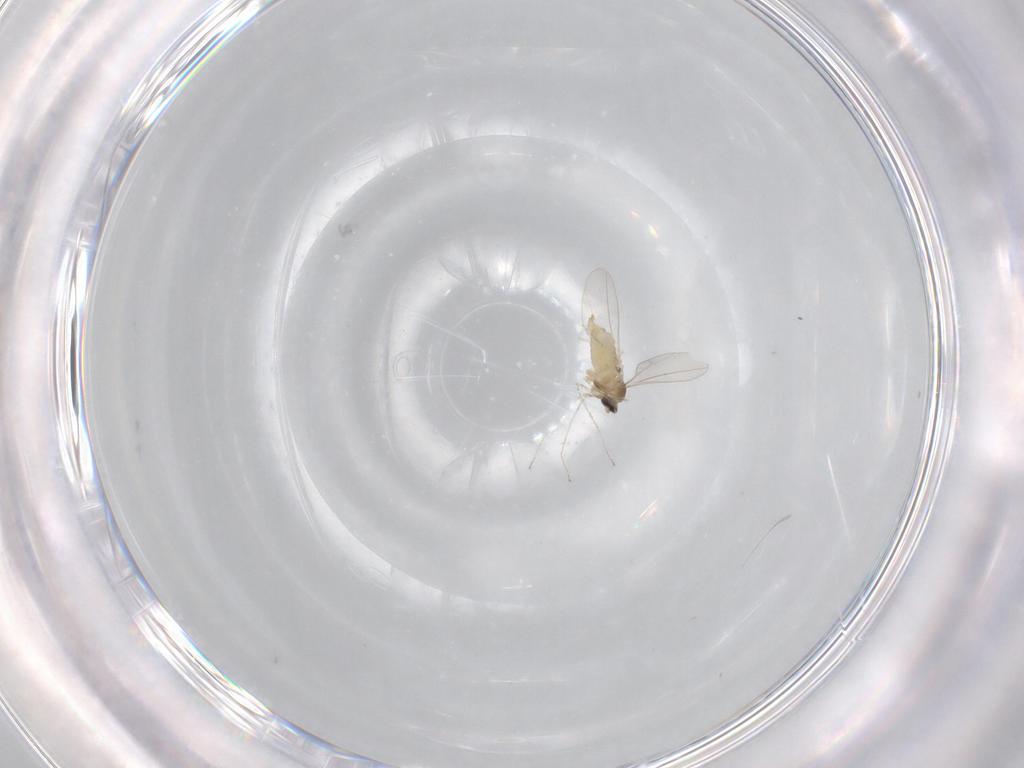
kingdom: Animalia
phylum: Arthropoda
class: Insecta
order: Diptera
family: Cecidomyiidae
